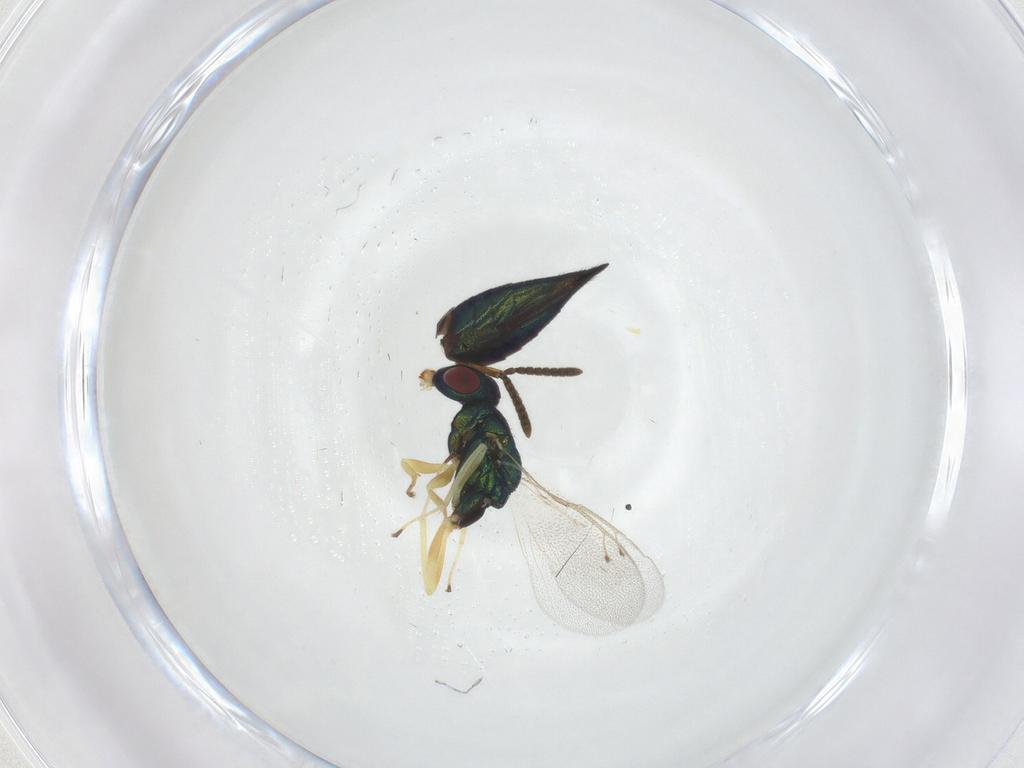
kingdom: Animalia
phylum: Arthropoda
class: Insecta
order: Hymenoptera
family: Pteromalidae
